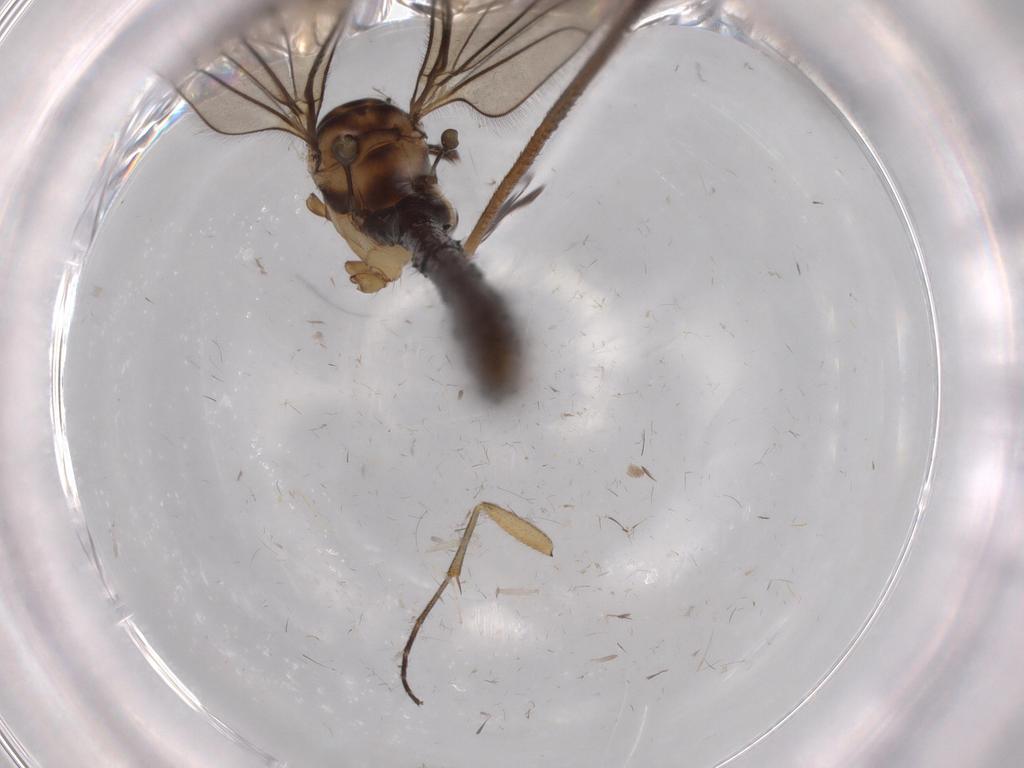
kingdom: Animalia
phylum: Arthropoda
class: Insecta
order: Diptera
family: Limoniidae
